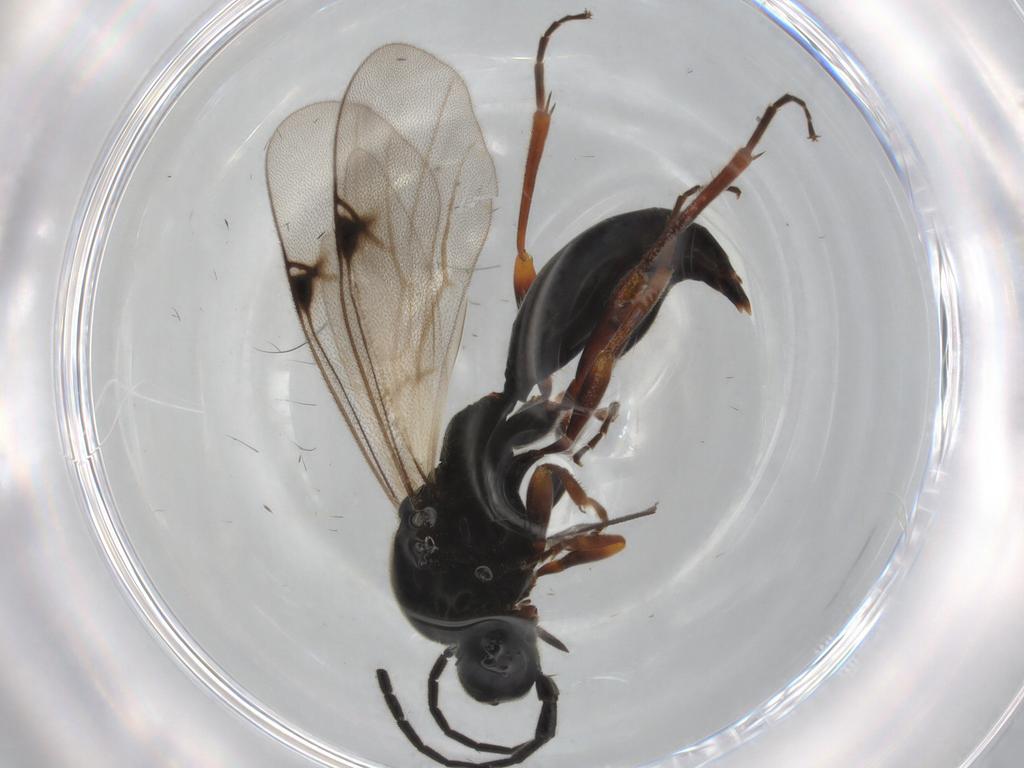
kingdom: Animalia
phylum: Arthropoda
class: Insecta
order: Hymenoptera
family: Proctotrupidae
